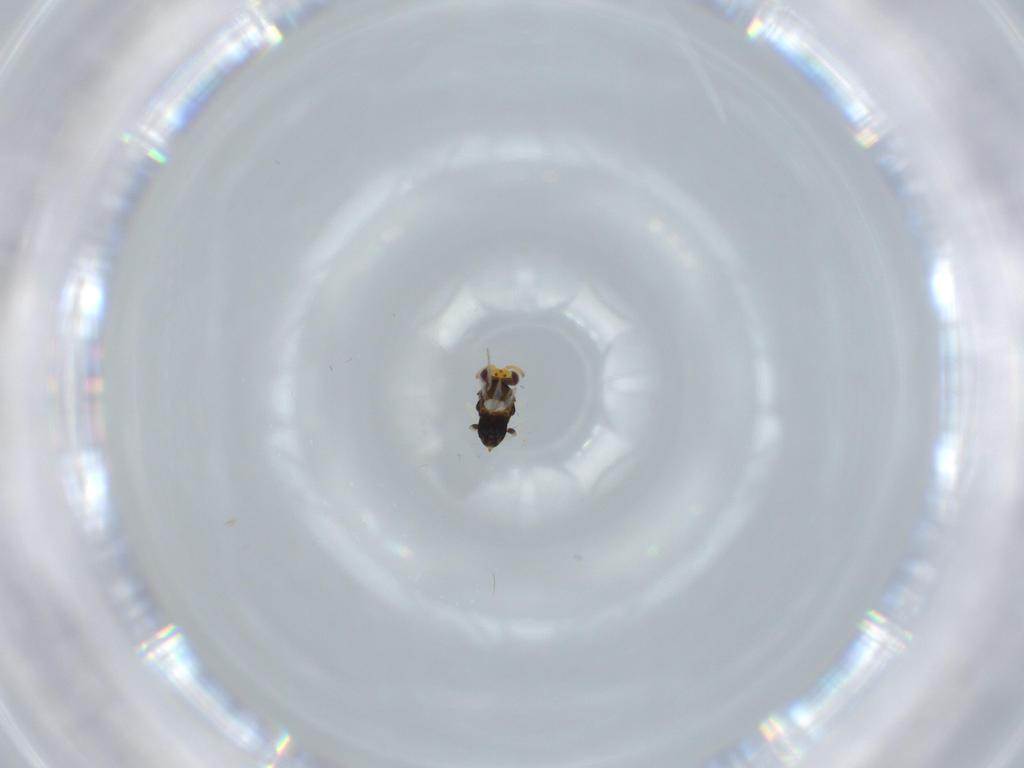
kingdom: Animalia
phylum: Arthropoda
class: Insecta
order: Hymenoptera
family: Aphelinidae
